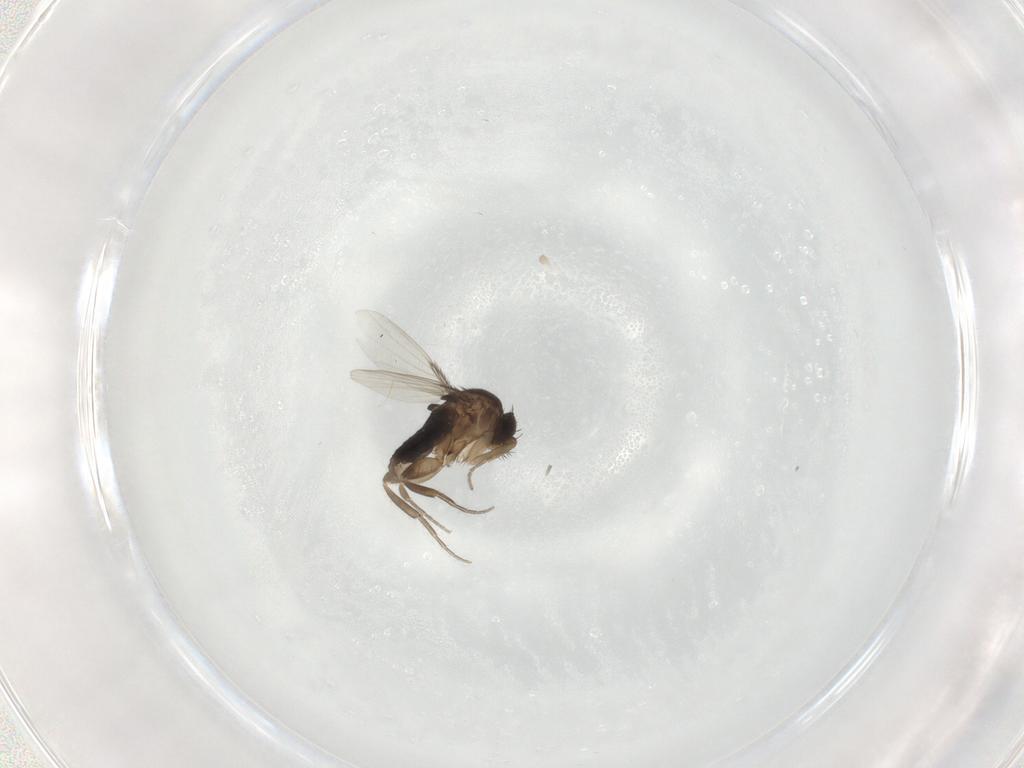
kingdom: Animalia
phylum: Arthropoda
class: Insecta
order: Diptera
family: Phoridae
